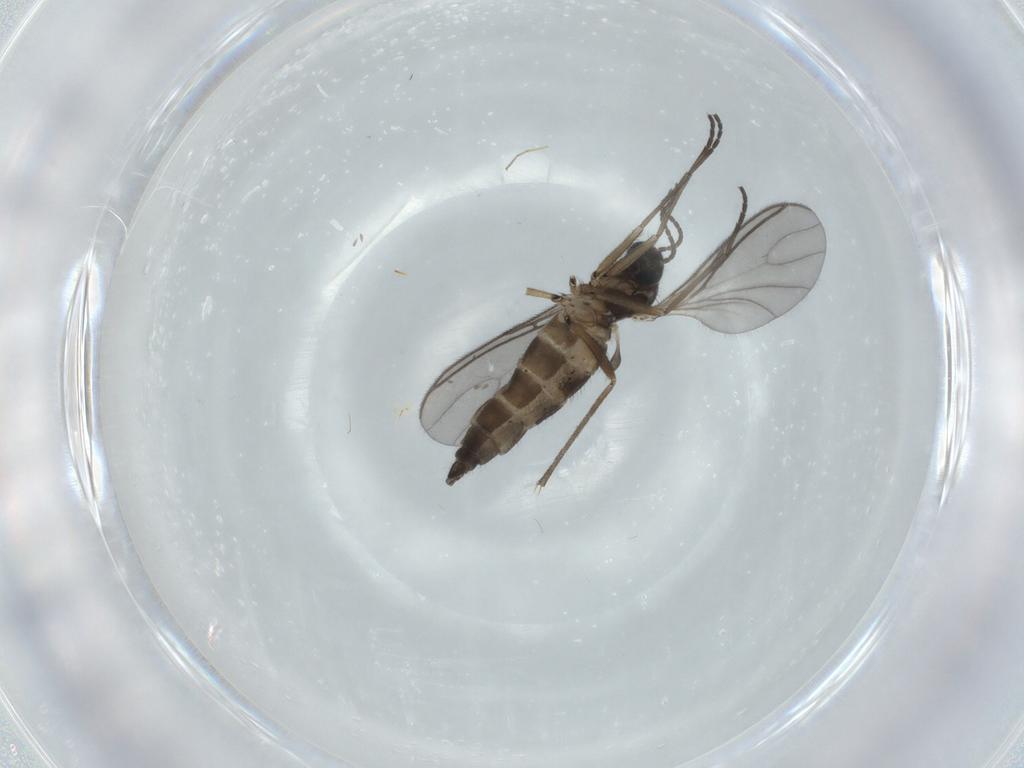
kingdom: Animalia
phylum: Arthropoda
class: Insecta
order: Diptera
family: Sciaridae
